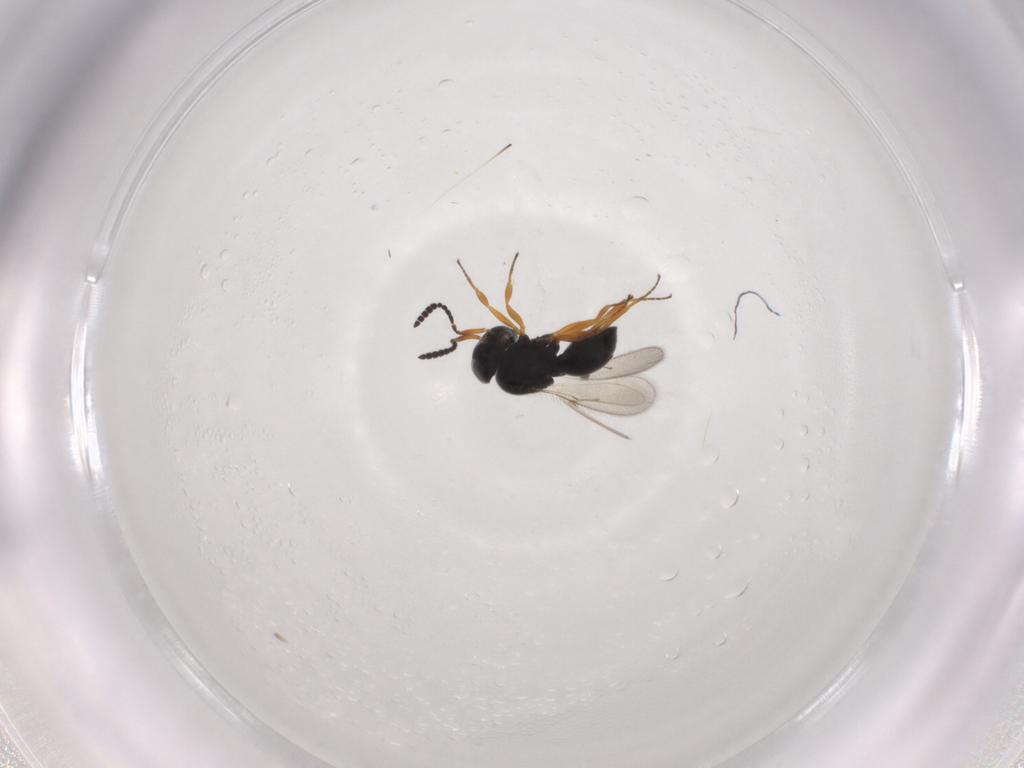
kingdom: Animalia
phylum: Arthropoda
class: Insecta
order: Hymenoptera
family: Scelionidae
